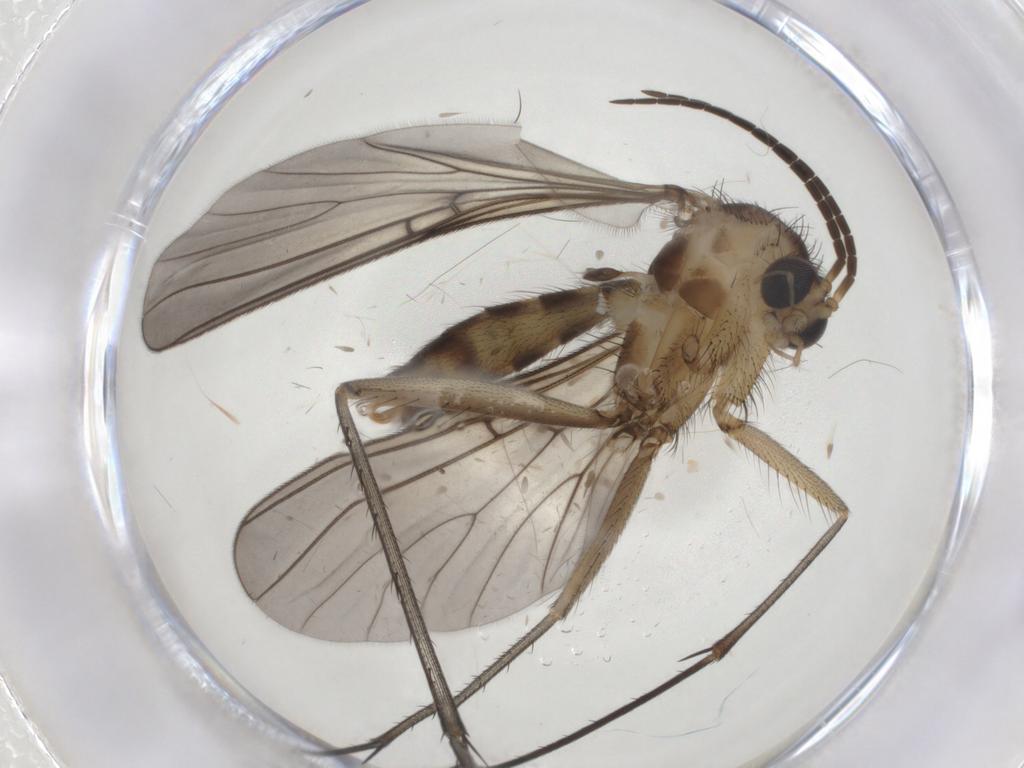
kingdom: Animalia
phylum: Arthropoda
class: Insecta
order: Diptera
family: Mycetophilidae
